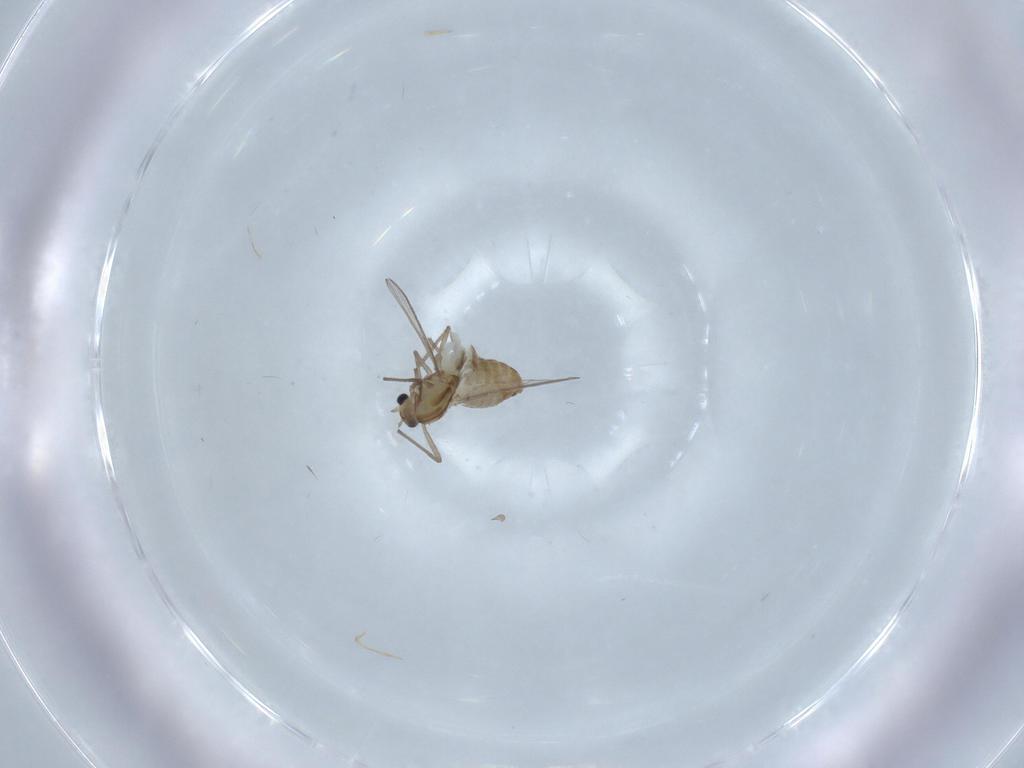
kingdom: Animalia
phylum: Arthropoda
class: Insecta
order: Diptera
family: Chironomidae
